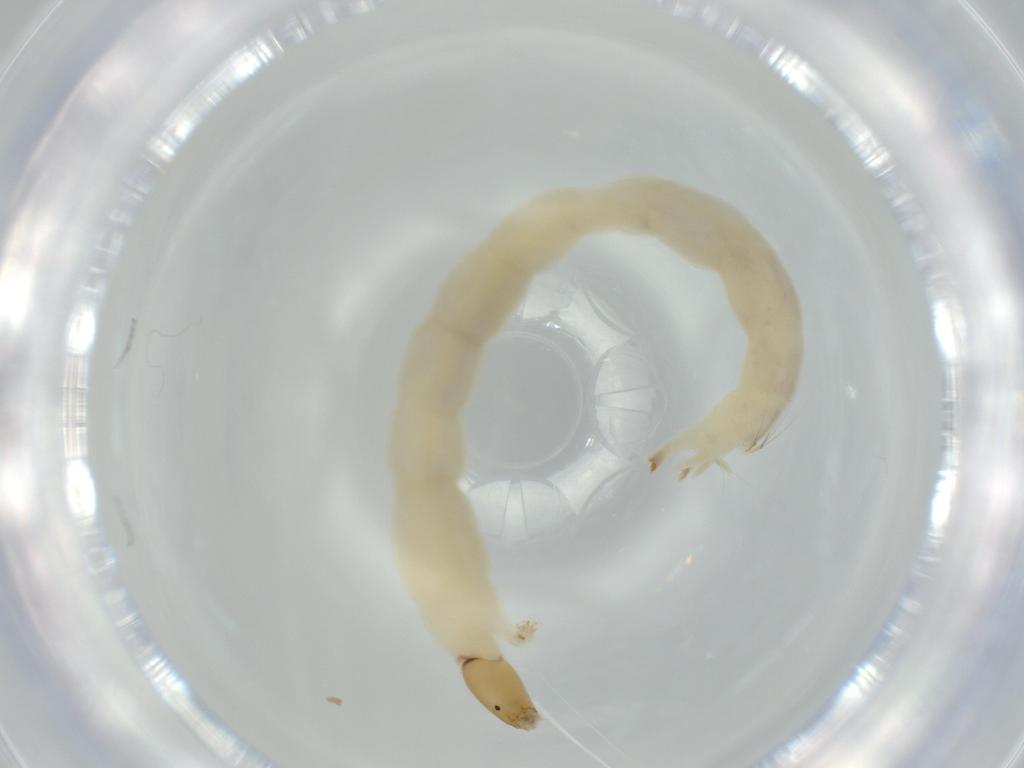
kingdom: Animalia
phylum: Arthropoda
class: Insecta
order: Diptera
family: Chironomidae
